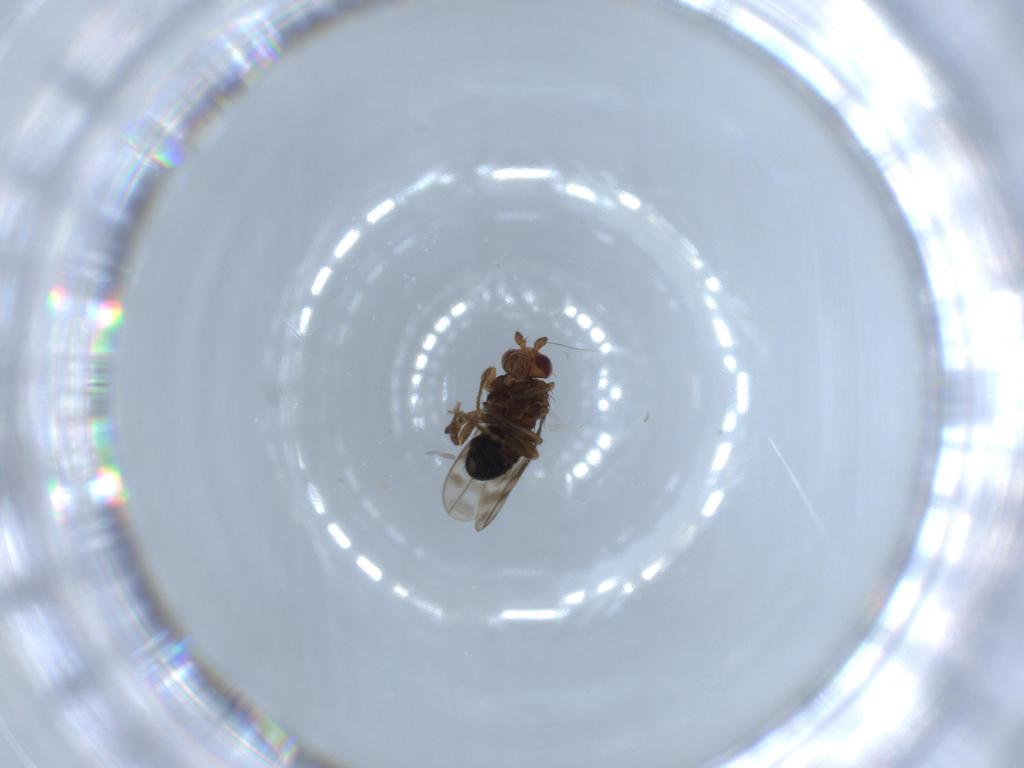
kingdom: Animalia
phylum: Arthropoda
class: Insecta
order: Diptera
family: Sphaeroceridae
